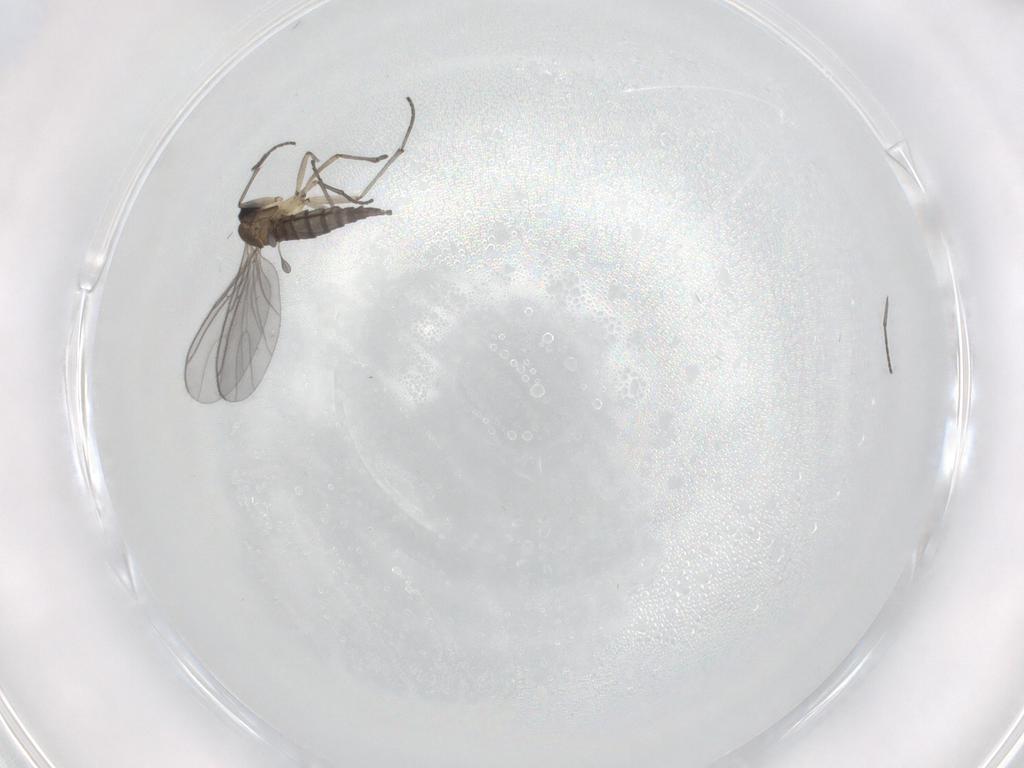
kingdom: Animalia
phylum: Arthropoda
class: Insecta
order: Diptera
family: Sciaridae
